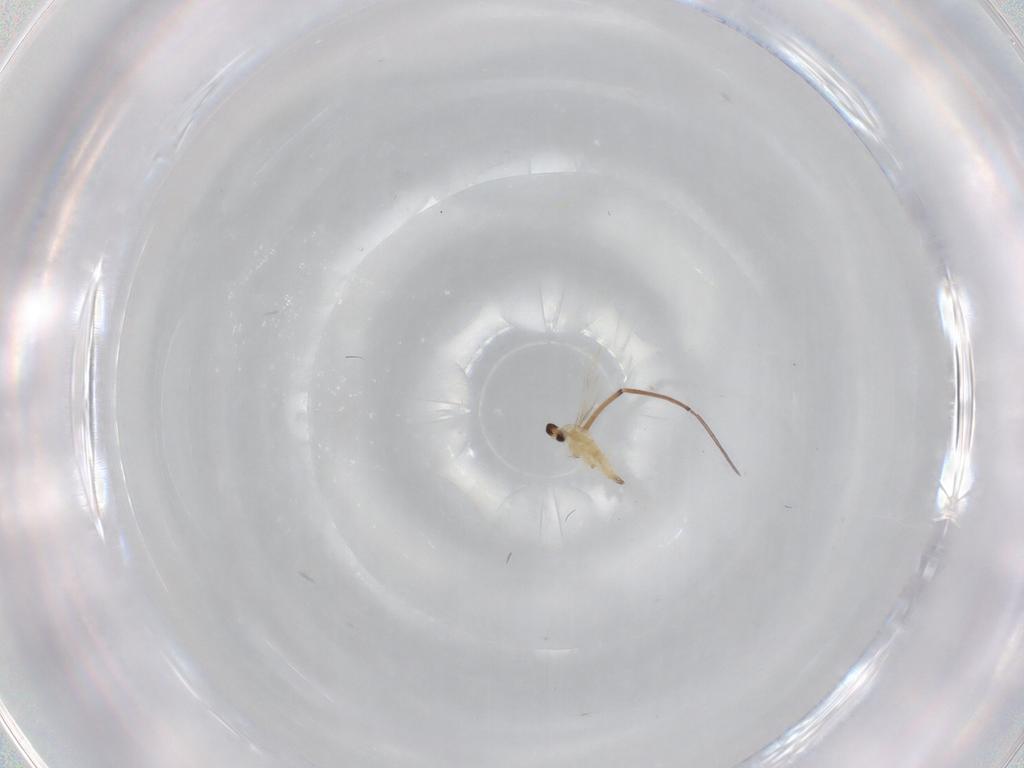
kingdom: Animalia
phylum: Arthropoda
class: Insecta
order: Diptera
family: Cecidomyiidae
